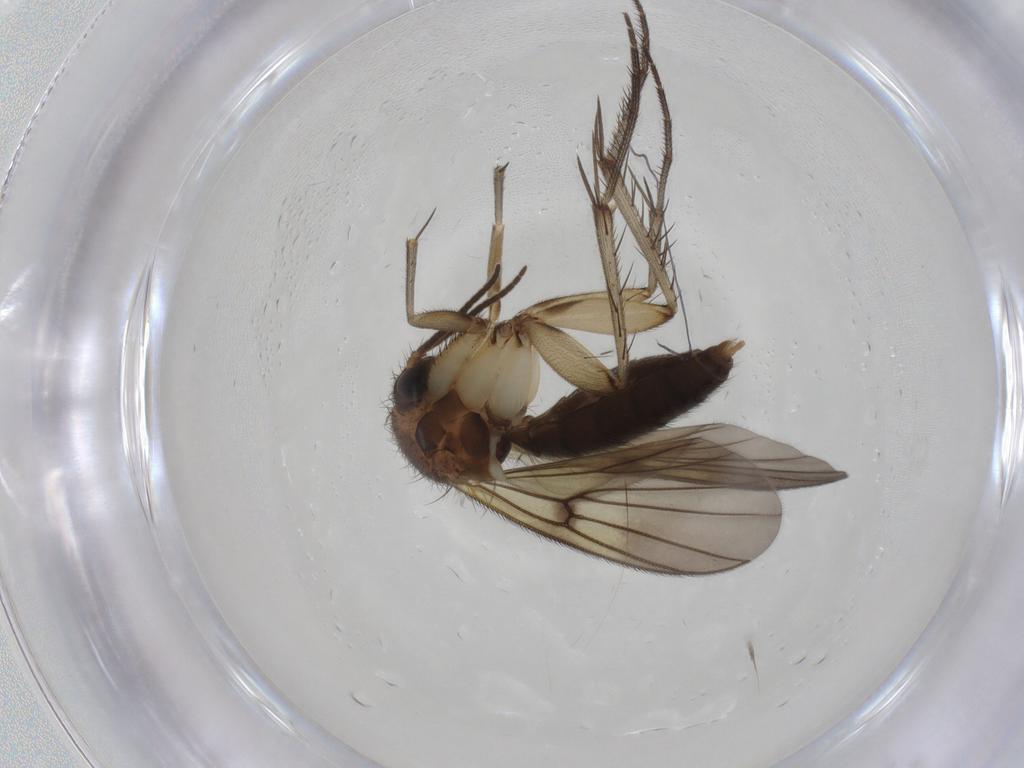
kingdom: Animalia
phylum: Arthropoda
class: Insecta
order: Diptera
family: Mycetophilidae
